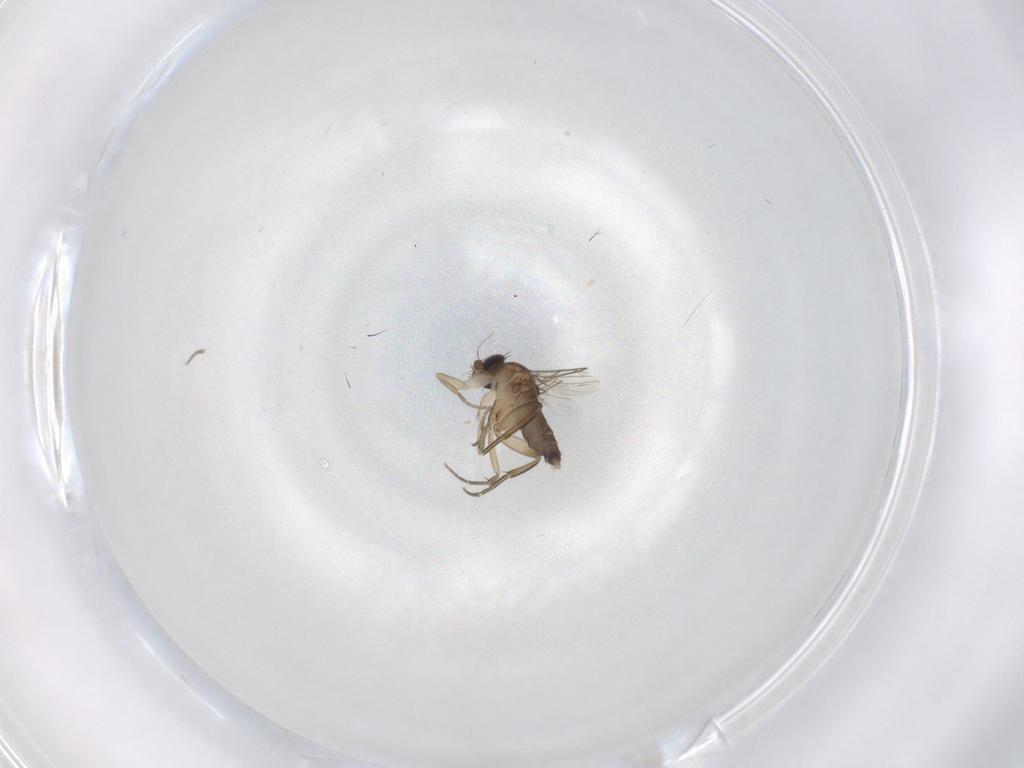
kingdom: Animalia
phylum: Arthropoda
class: Insecta
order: Diptera
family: Phoridae
